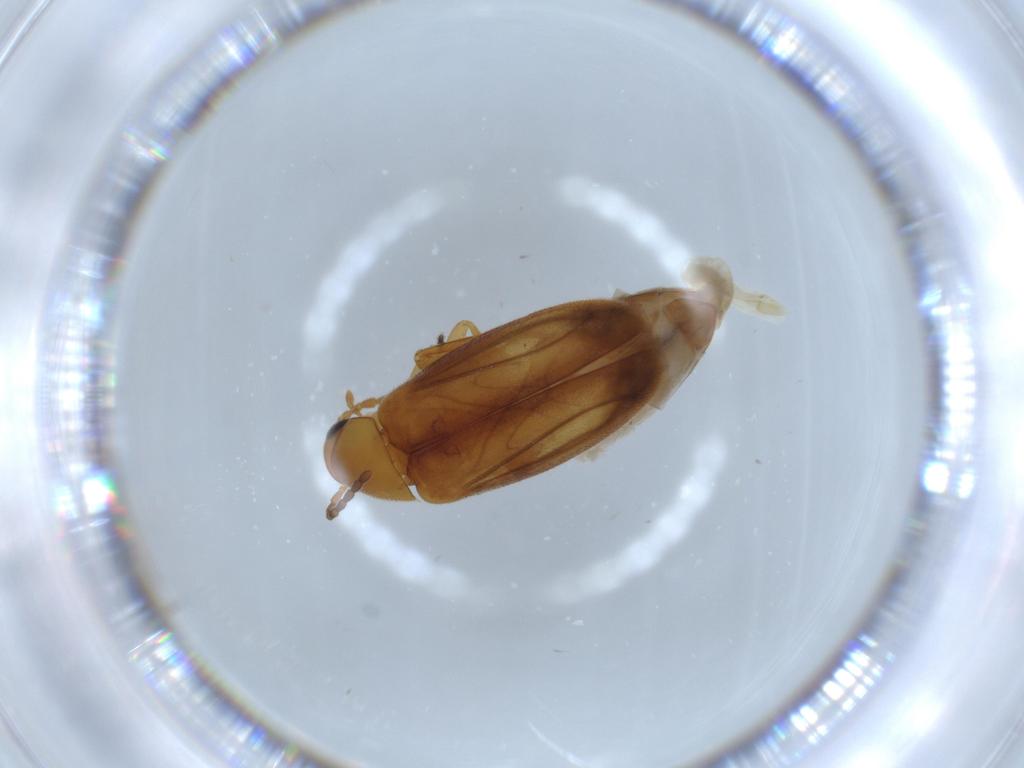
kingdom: Animalia
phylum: Arthropoda
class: Insecta
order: Coleoptera
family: Scraptiidae
